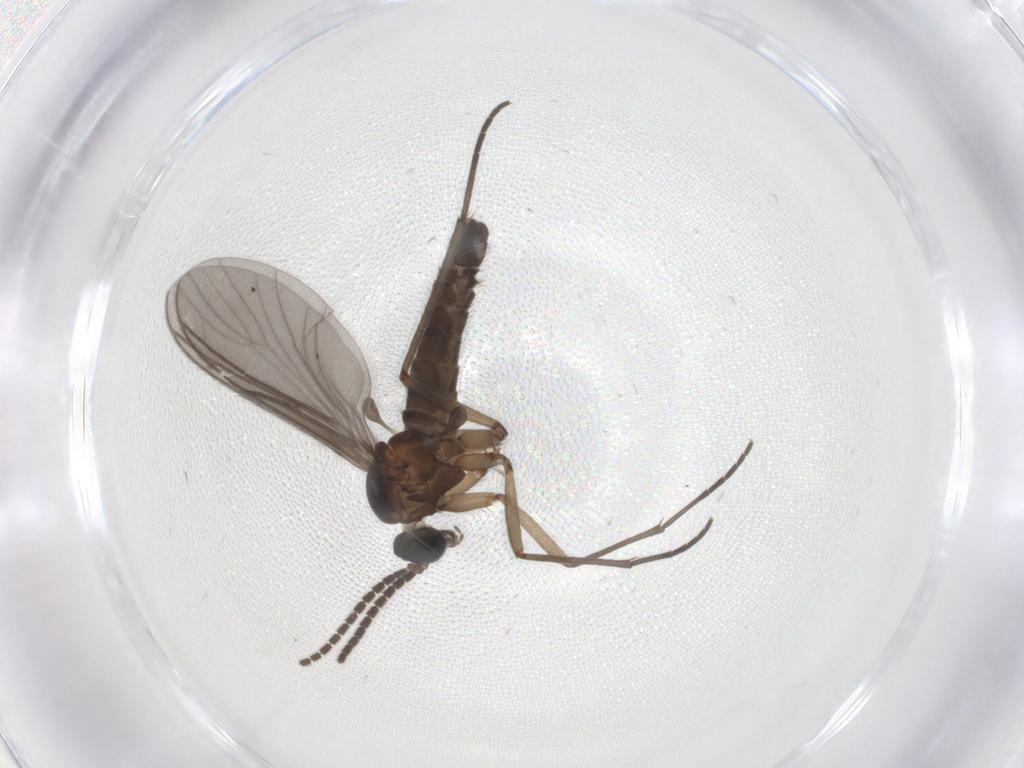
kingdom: Animalia
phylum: Arthropoda
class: Insecta
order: Diptera
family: Sciaridae
